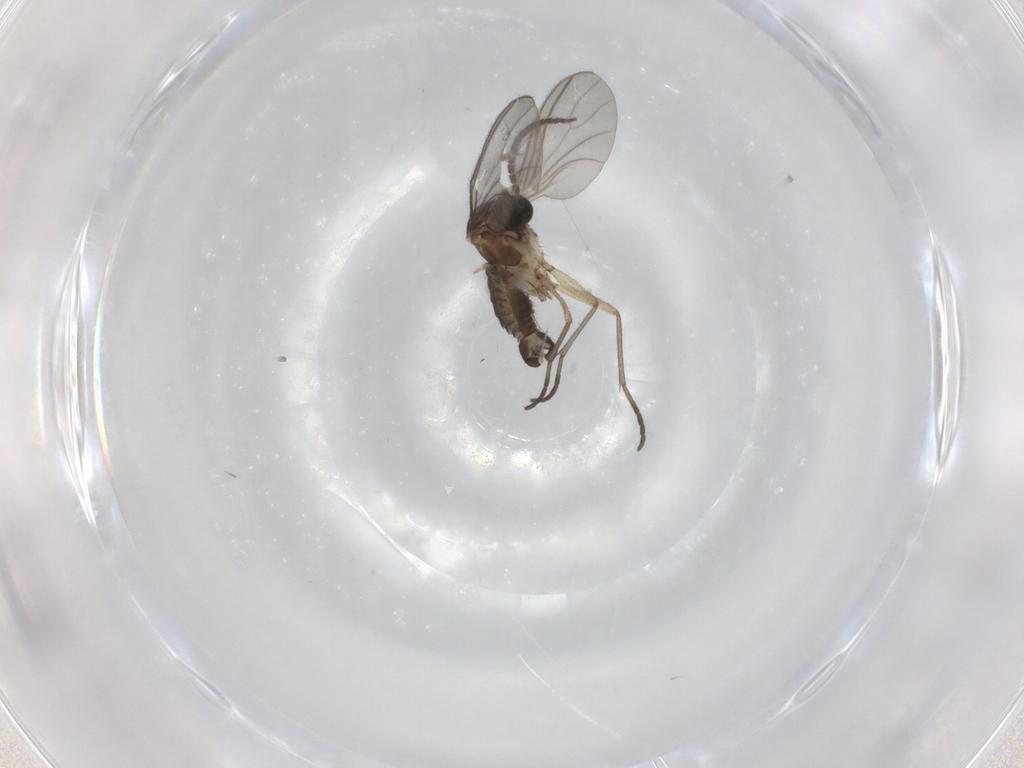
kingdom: Animalia
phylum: Arthropoda
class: Insecta
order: Diptera
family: Sciaridae
